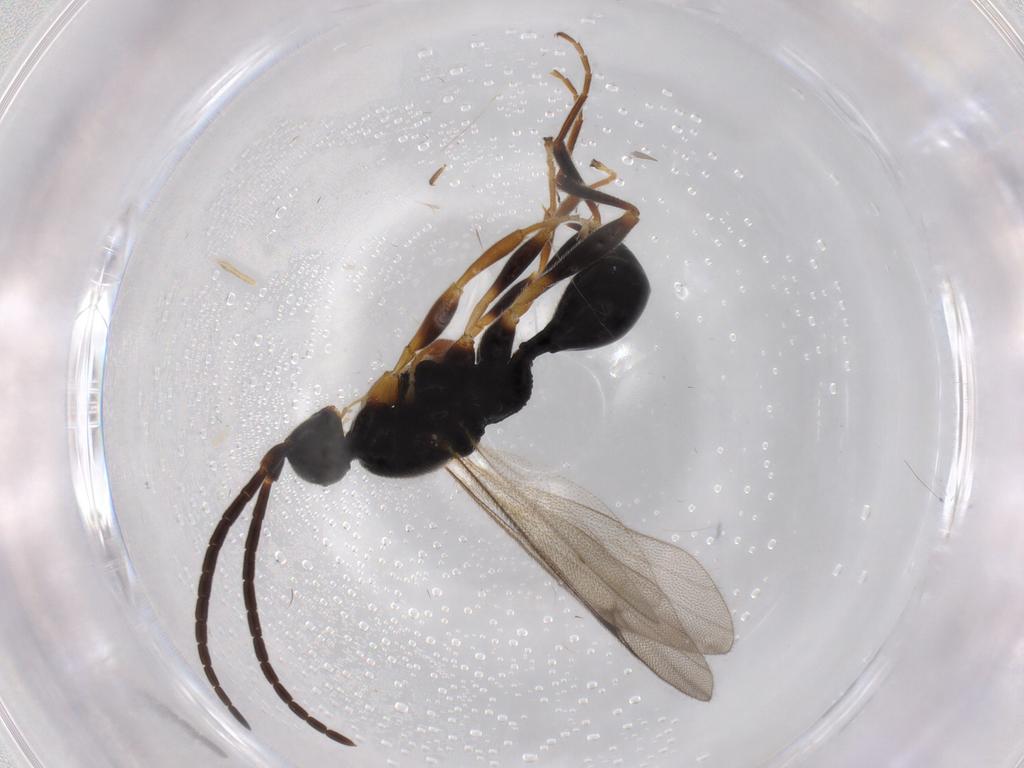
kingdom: Animalia
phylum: Arthropoda
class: Insecta
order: Hymenoptera
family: Proctotrupidae
